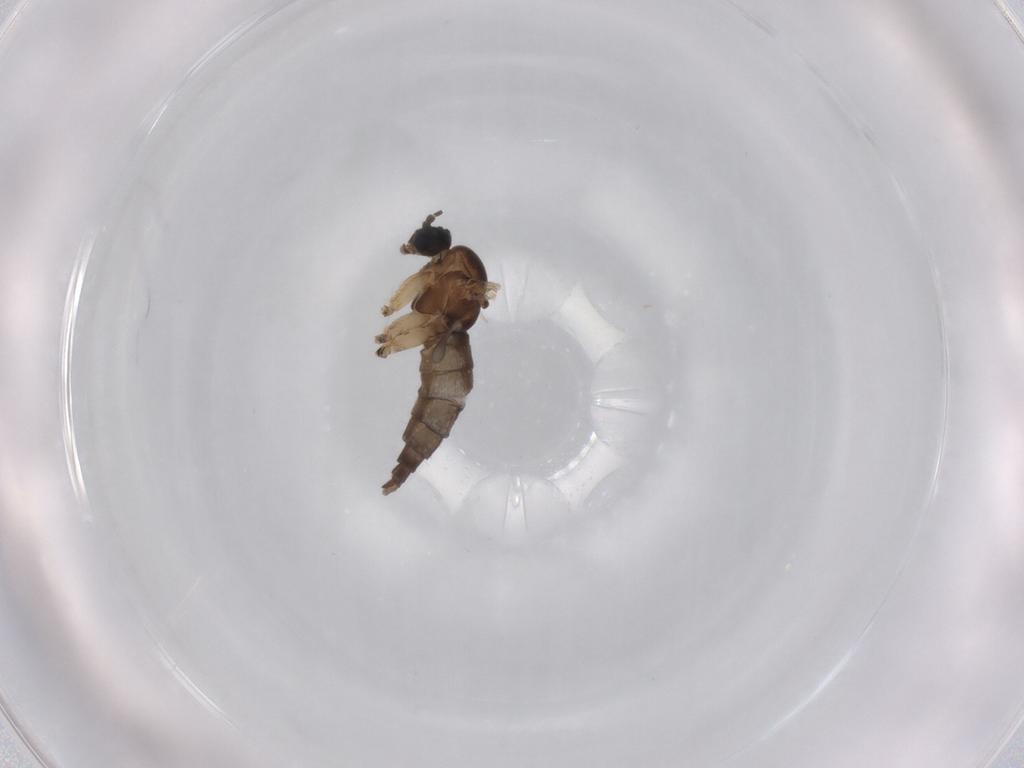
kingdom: Animalia
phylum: Arthropoda
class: Insecta
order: Diptera
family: Sciaridae
